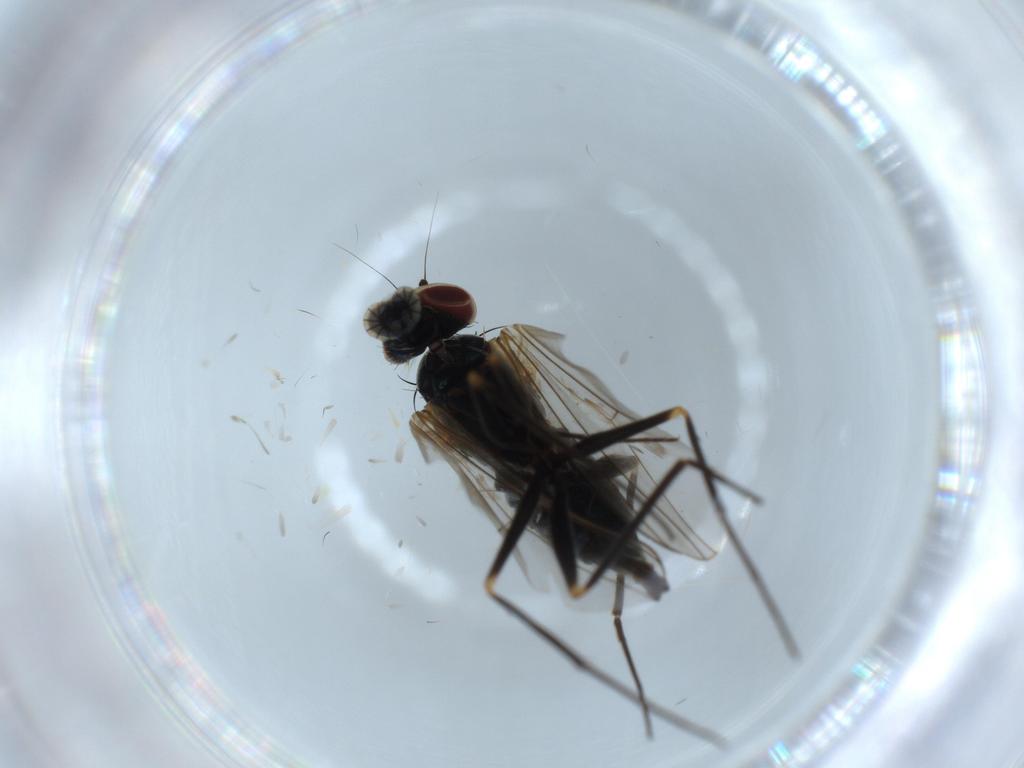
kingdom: Animalia
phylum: Arthropoda
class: Insecta
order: Diptera
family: Dolichopodidae
